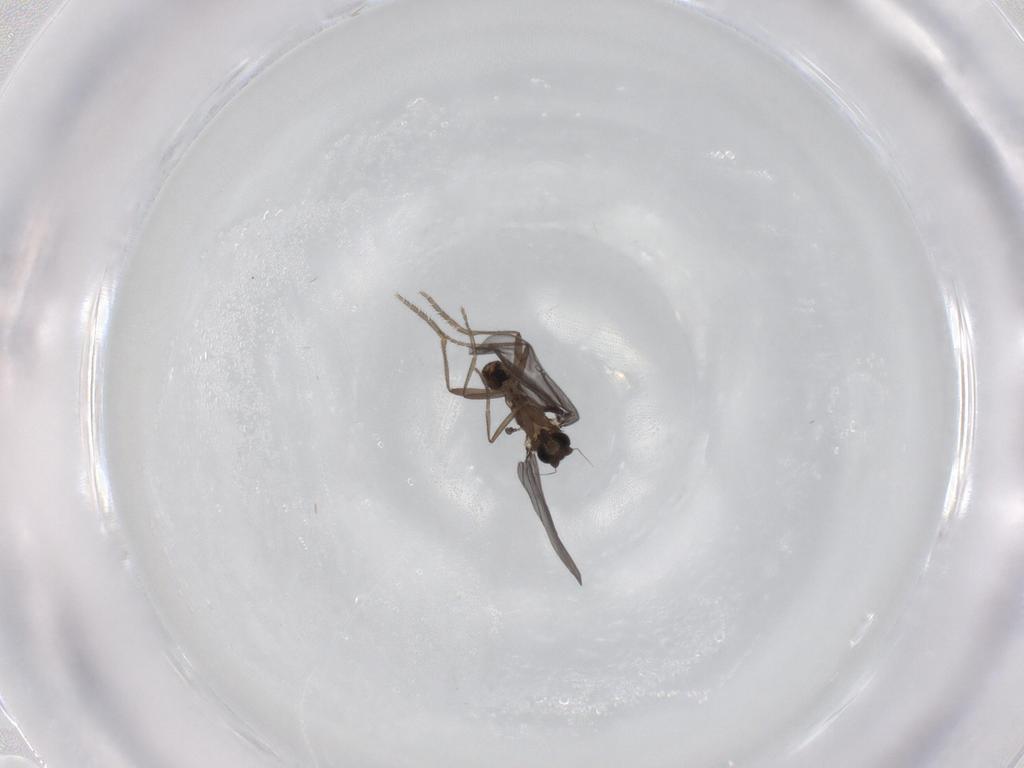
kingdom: Animalia
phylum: Arthropoda
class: Insecta
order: Diptera
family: Phoridae
